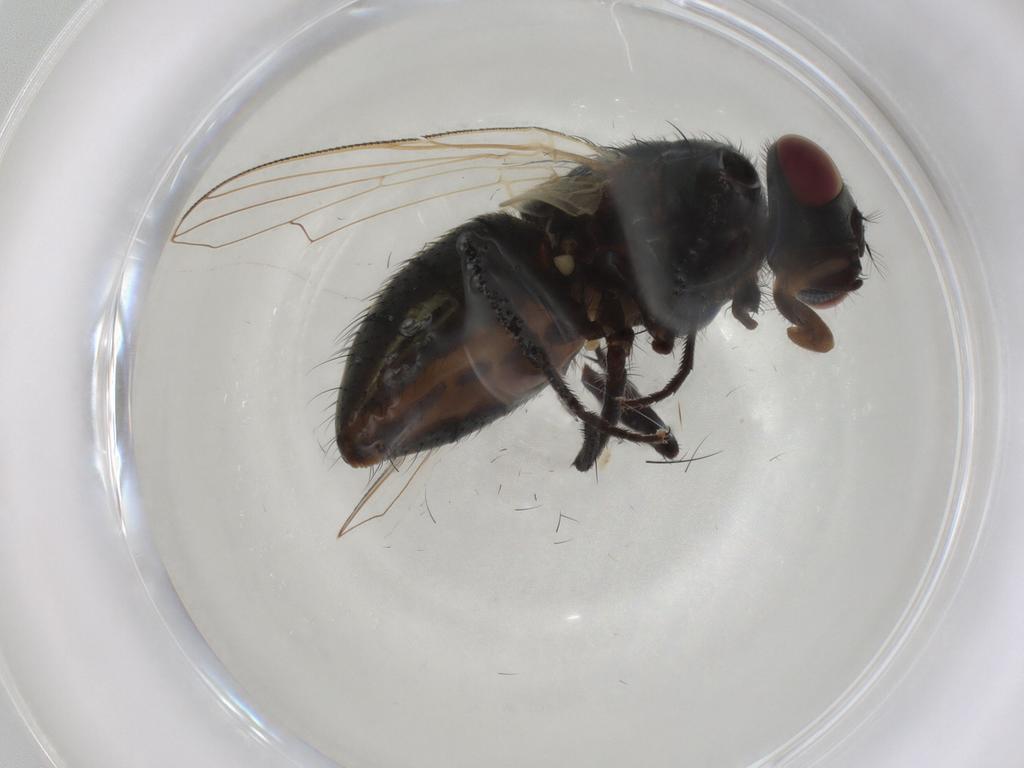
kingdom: Animalia
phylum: Arthropoda
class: Insecta
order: Diptera
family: Muscidae
